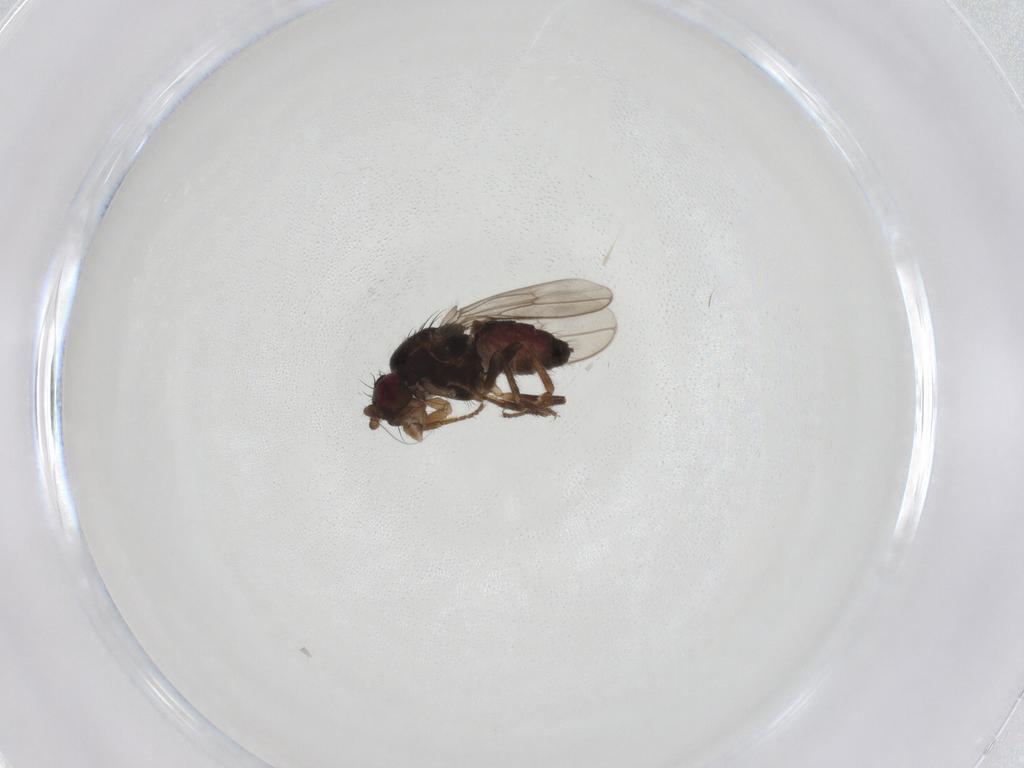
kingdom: Animalia
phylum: Arthropoda
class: Insecta
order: Diptera
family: Sphaeroceridae
